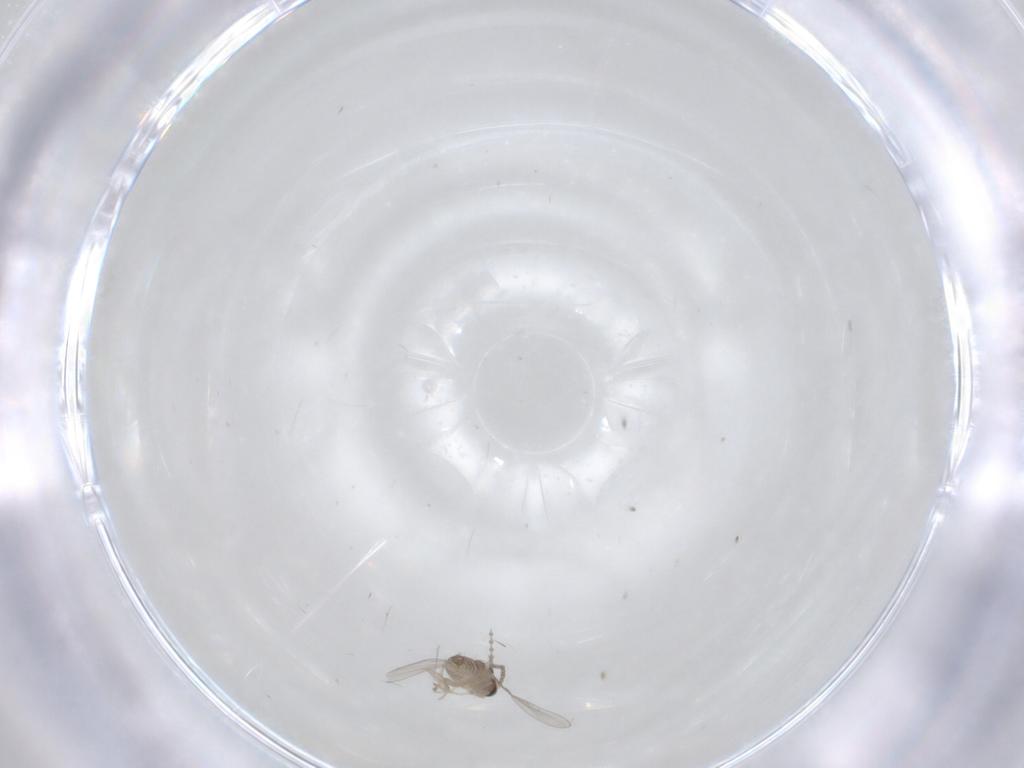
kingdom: Animalia
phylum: Arthropoda
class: Insecta
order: Diptera
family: Cecidomyiidae
